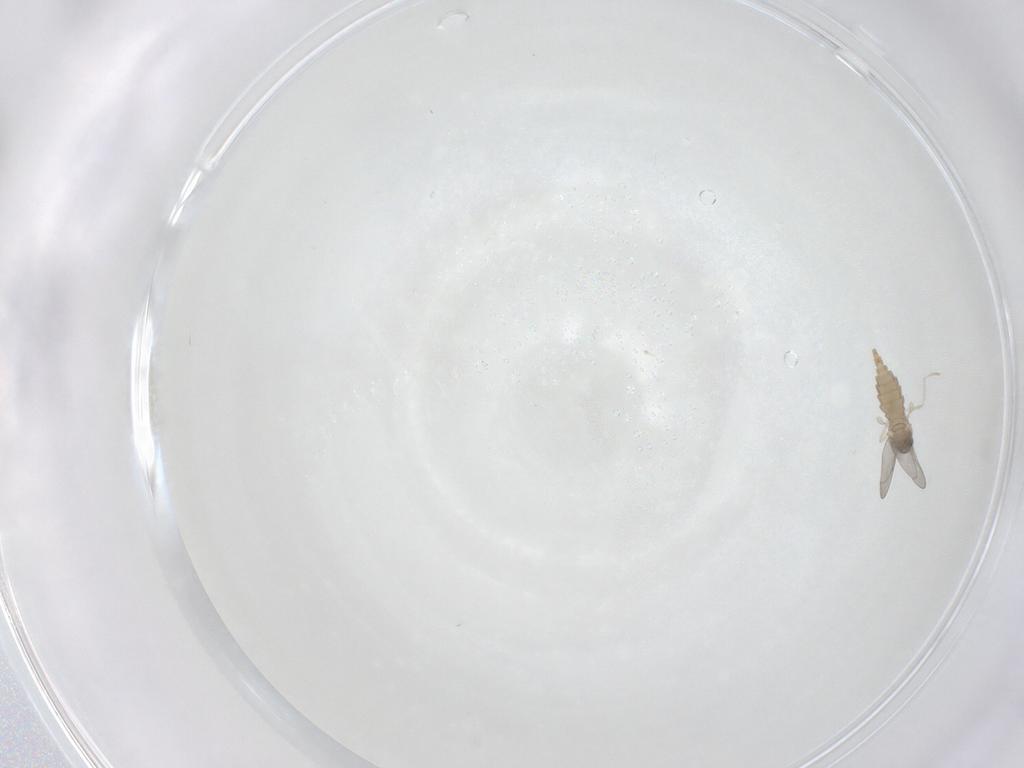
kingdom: Animalia
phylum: Arthropoda
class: Insecta
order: Diptera
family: Cecidomyiidae
